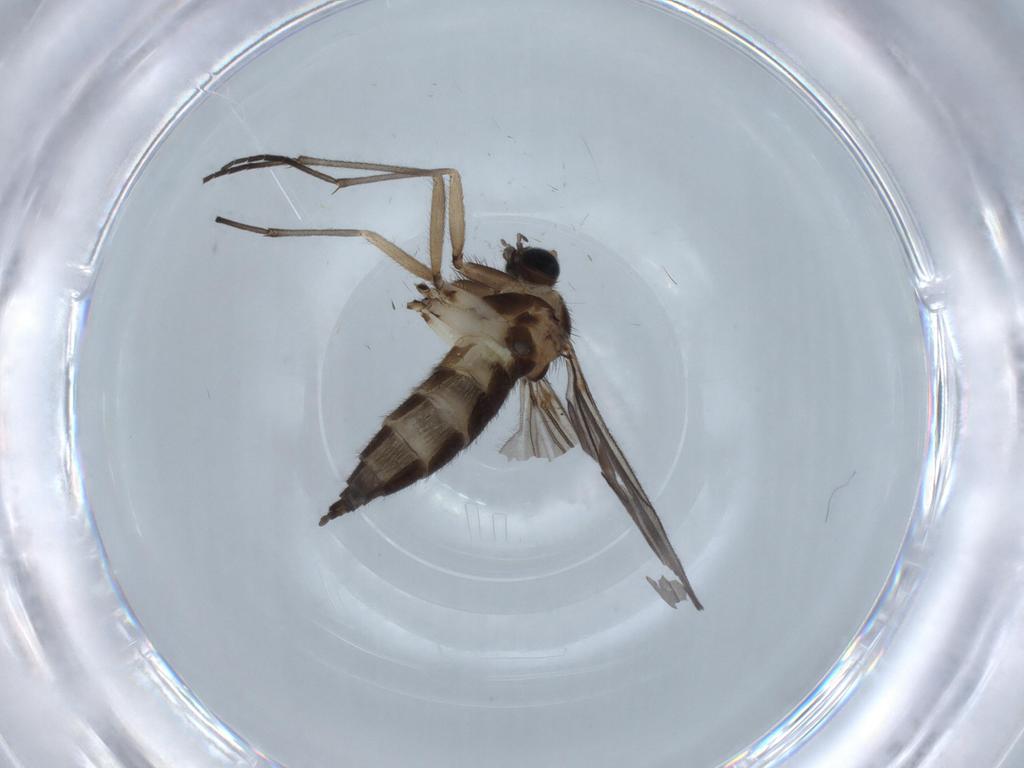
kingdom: Animalia
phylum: Arthropoda
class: Insecta
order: Diptera
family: Sciaridae
